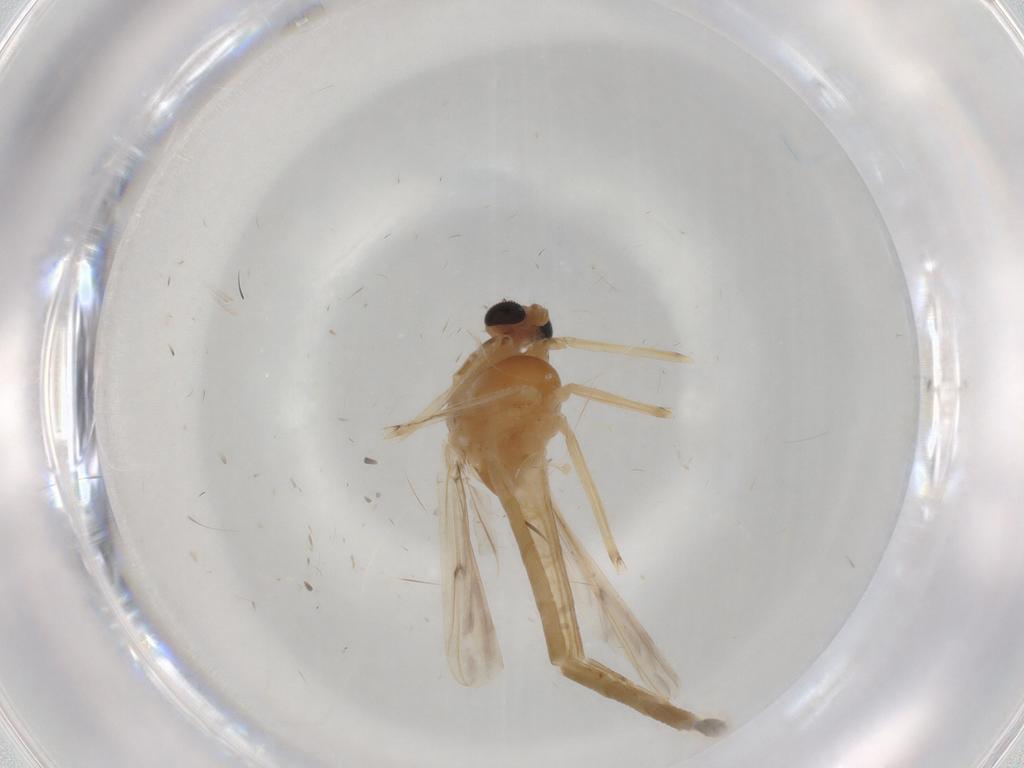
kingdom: Animalia
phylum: Arthropoda
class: Insecta
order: Diptera
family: Chironomidae
